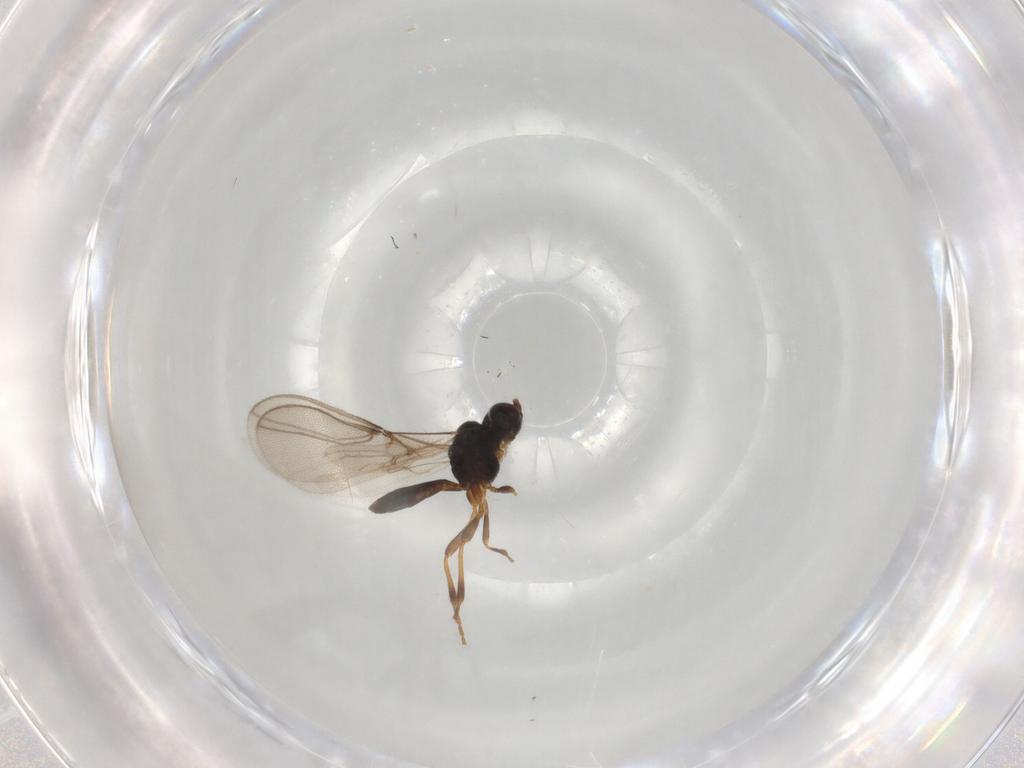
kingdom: Animalia
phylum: Arthropoda
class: Insecta
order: Hymenoptera
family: Braconidae
